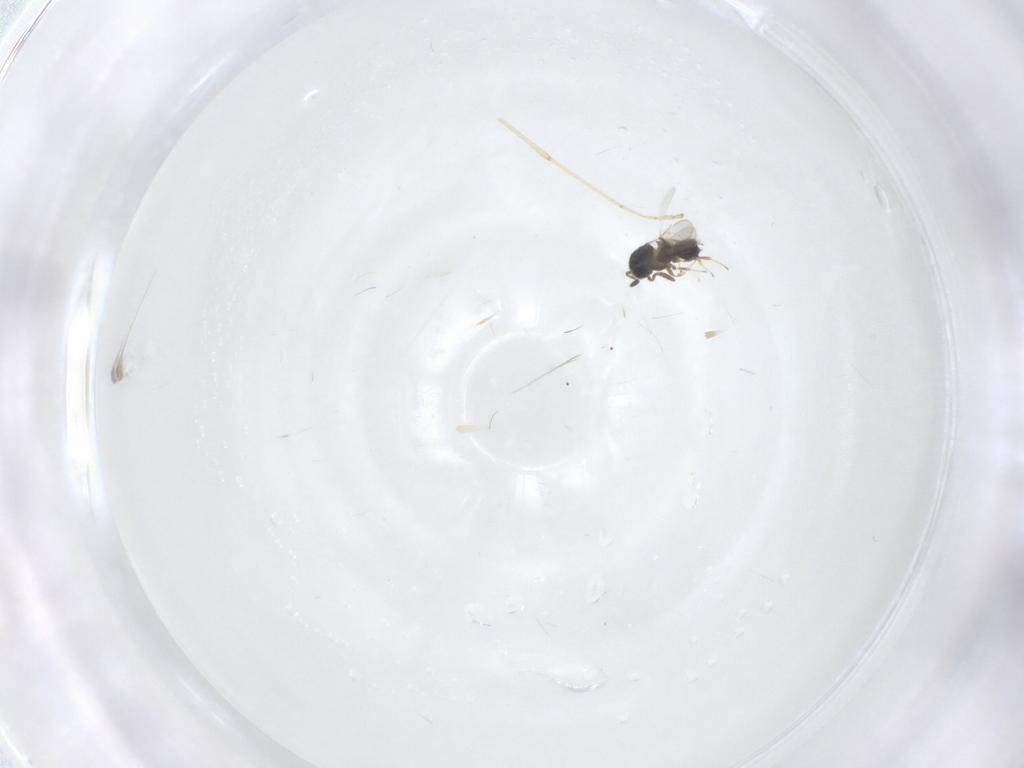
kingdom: Animalia
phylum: Arthropoda
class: Insecta
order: Hymenoptera
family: Scelionidae
